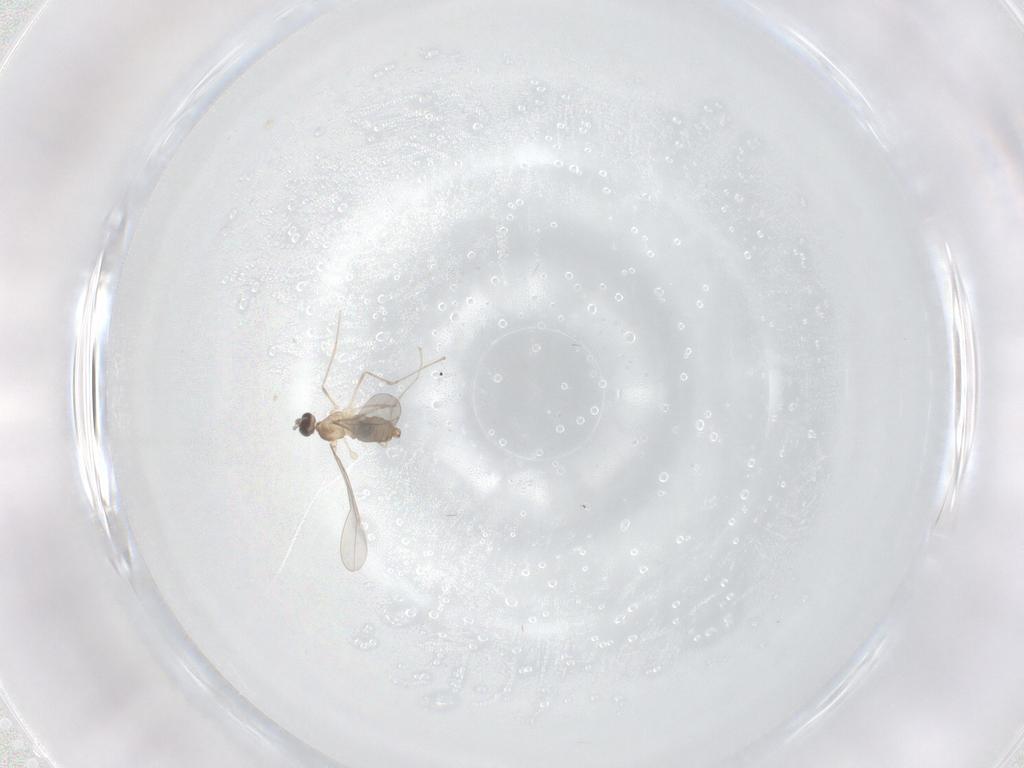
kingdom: Animalia
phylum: Arthropoda
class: Insecta
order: Diptera
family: Cecidomyiidae
